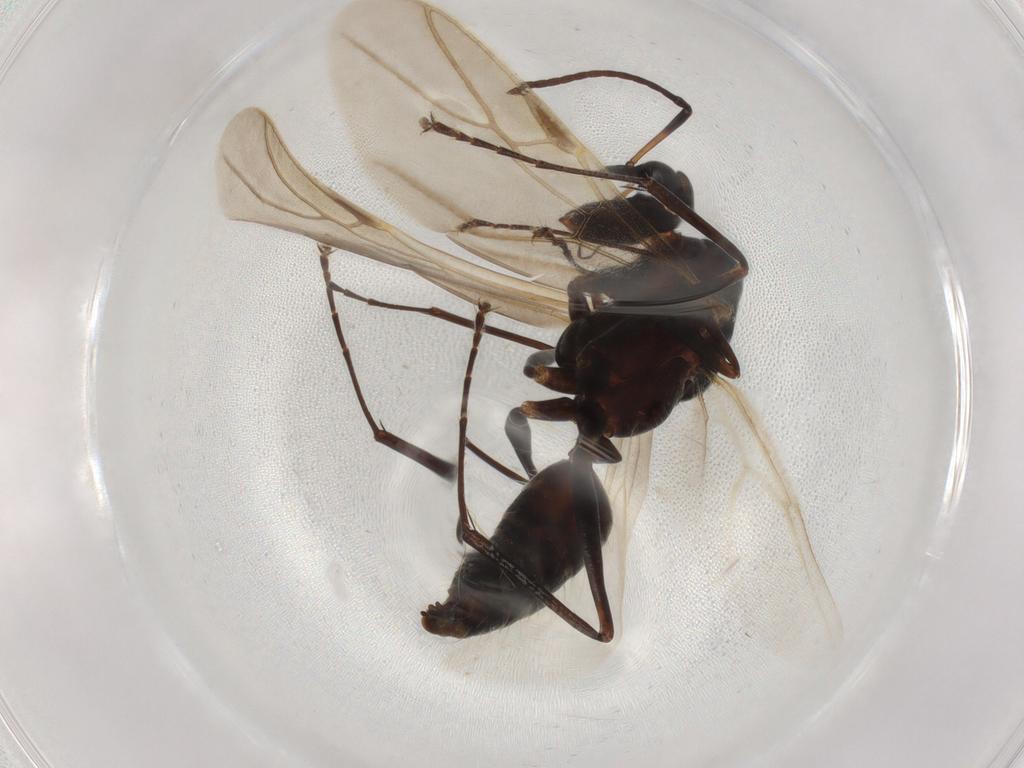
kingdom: Animalia
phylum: Arthropoda
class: Insecta
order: Hymenoptera
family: Formicidae
